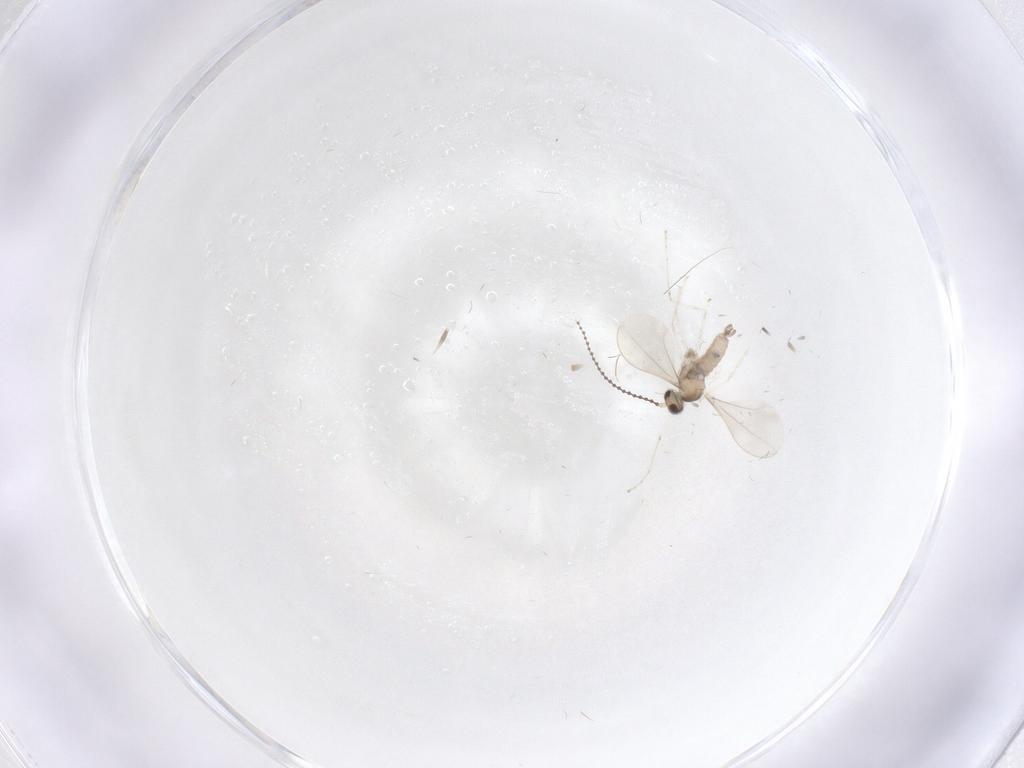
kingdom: Animalia
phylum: Arthropoda
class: Insecta
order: Diptera
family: Cecidomyiidae
